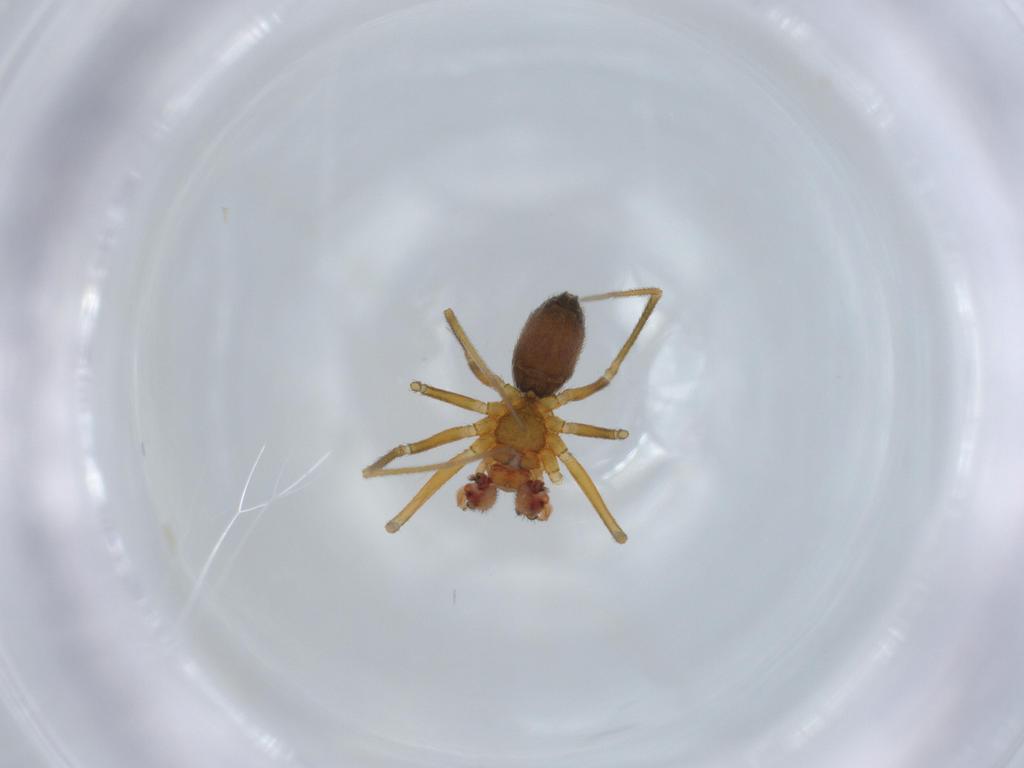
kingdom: Animalia
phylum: Arthropoda
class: Arachnida
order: Araneae
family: Linyphiidae
